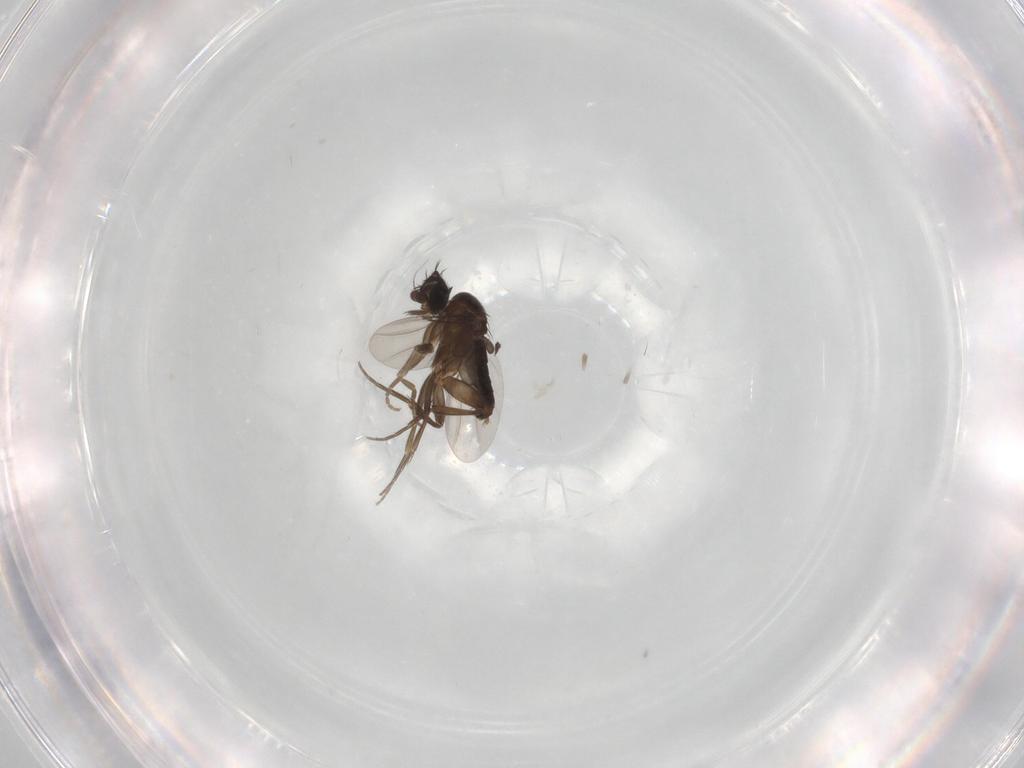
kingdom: Animalia
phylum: Arthropoda
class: Insecta
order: Diptera
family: Phoridae
